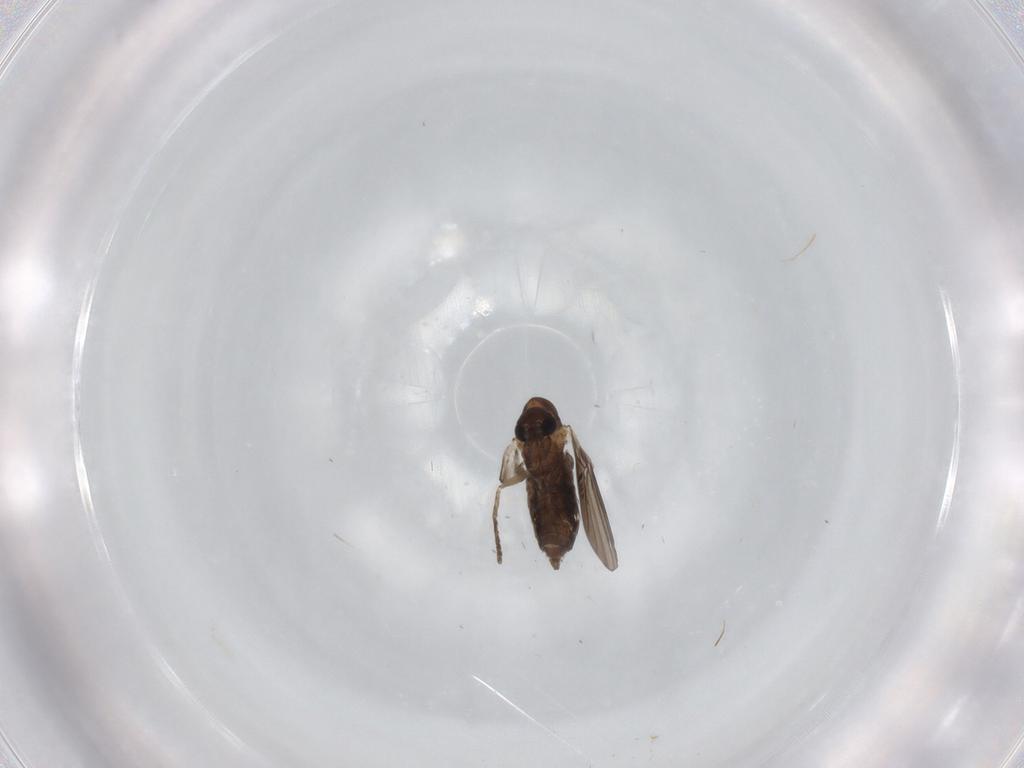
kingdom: Animalia
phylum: Arthropoda
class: Insecta
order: Diptera
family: Psychodidae
